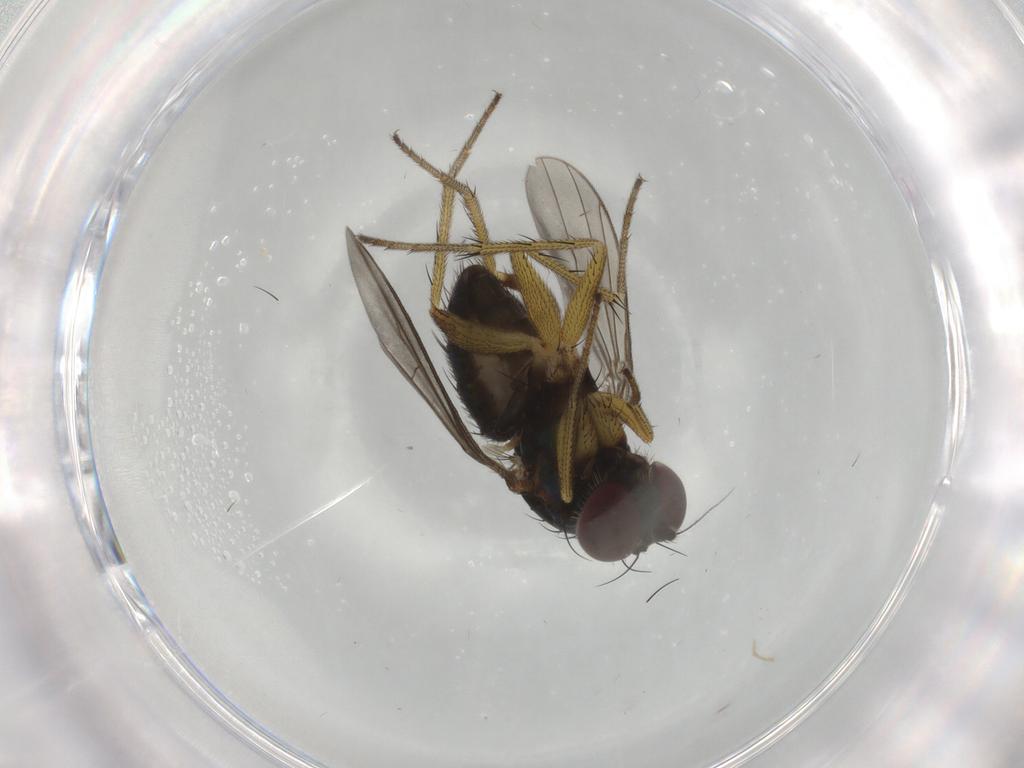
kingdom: Animalia
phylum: Arthropoda
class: Insecta
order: Diptera
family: Dolichopodidae
